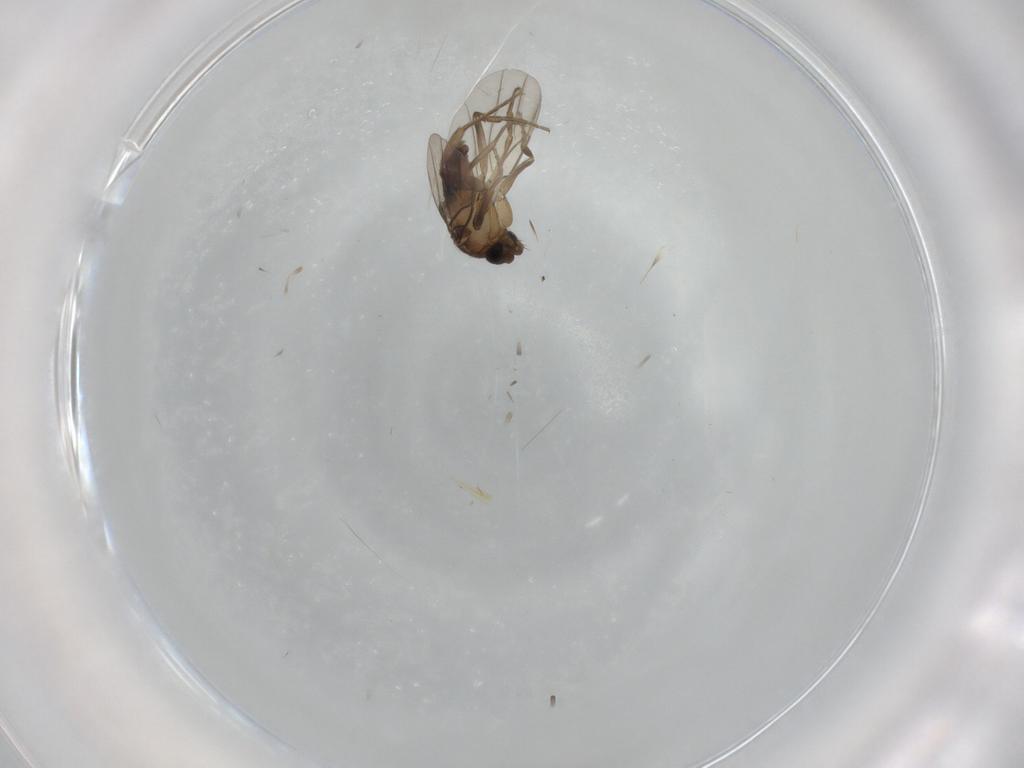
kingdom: Animalia
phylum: Arthropoda
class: Insecta
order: Diptera
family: Phoridae
